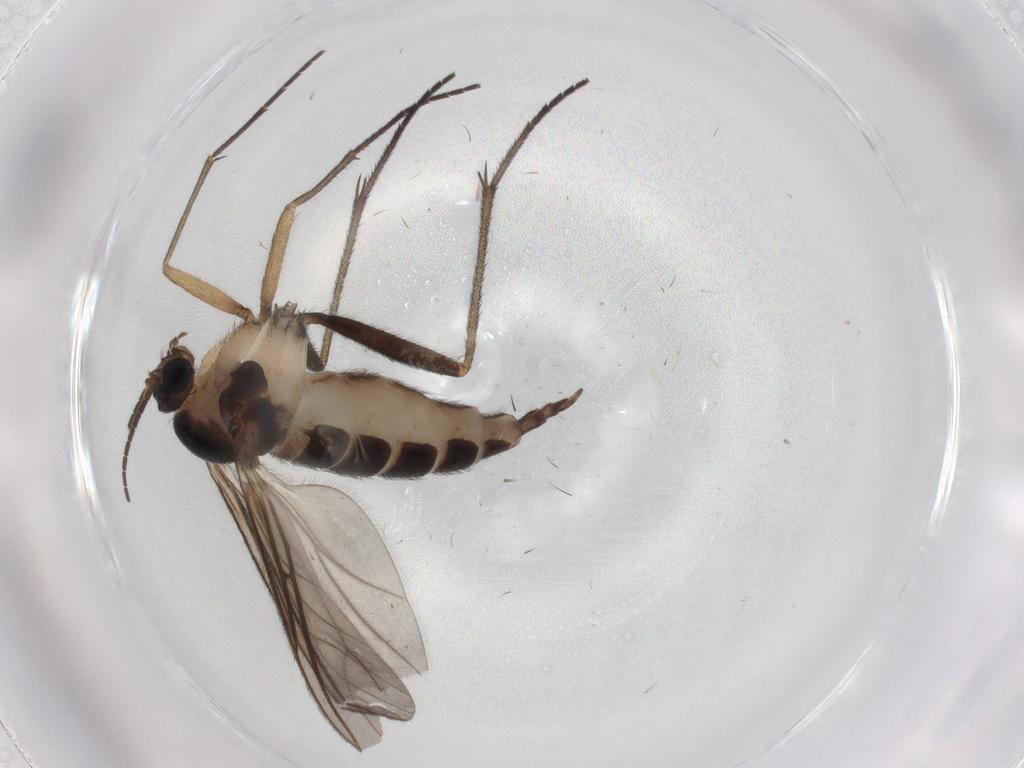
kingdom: Animalia
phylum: Arthropoda
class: Insecta
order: Diptera
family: Sciaridae
